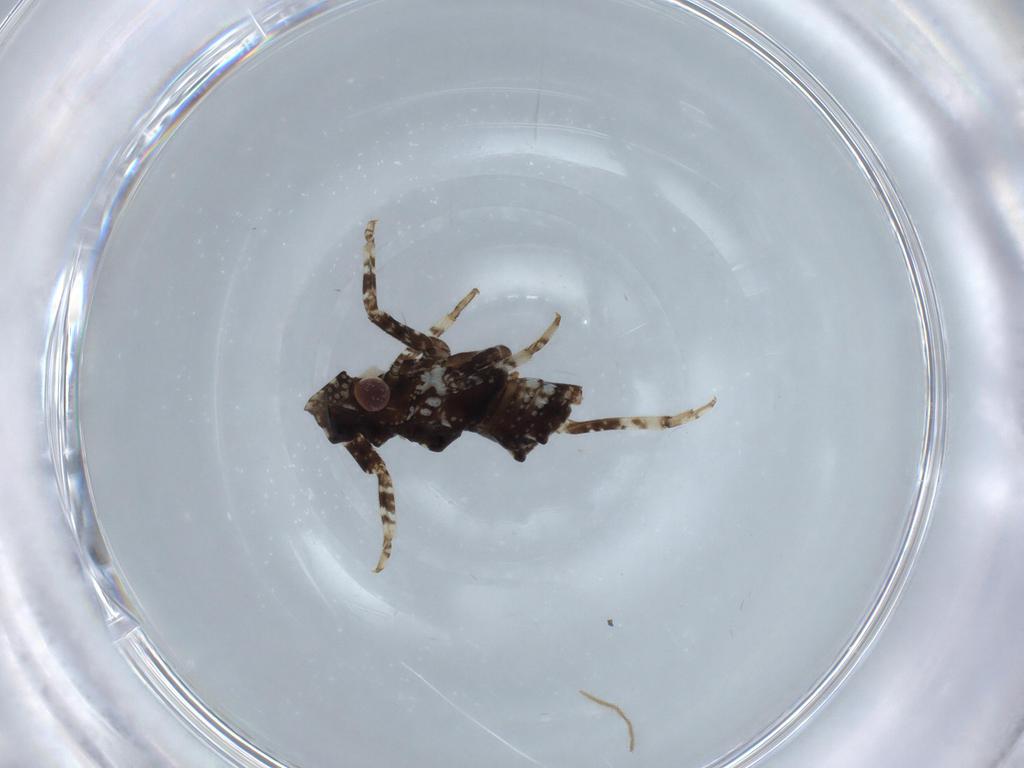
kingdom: Animalia
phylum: Arthropoda
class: Insecta
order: Hemiptera
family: Fulgoridae
